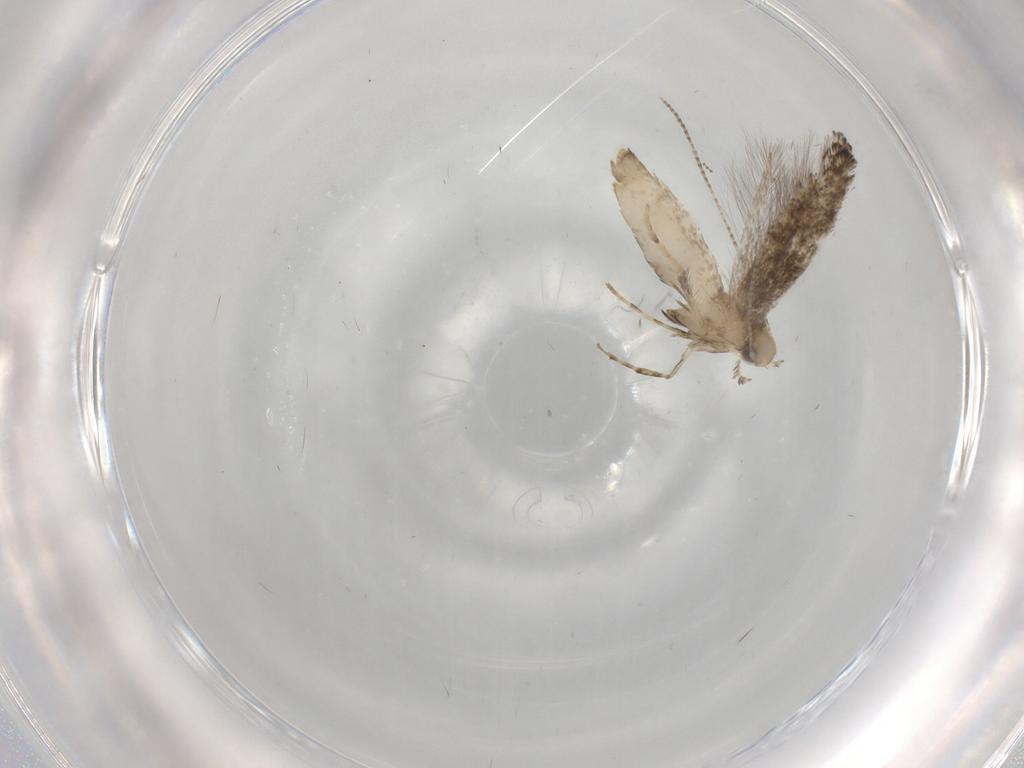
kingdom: Animalia
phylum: Arthropoda
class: Insecta
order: Lepidoptera
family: Gracillariidae
